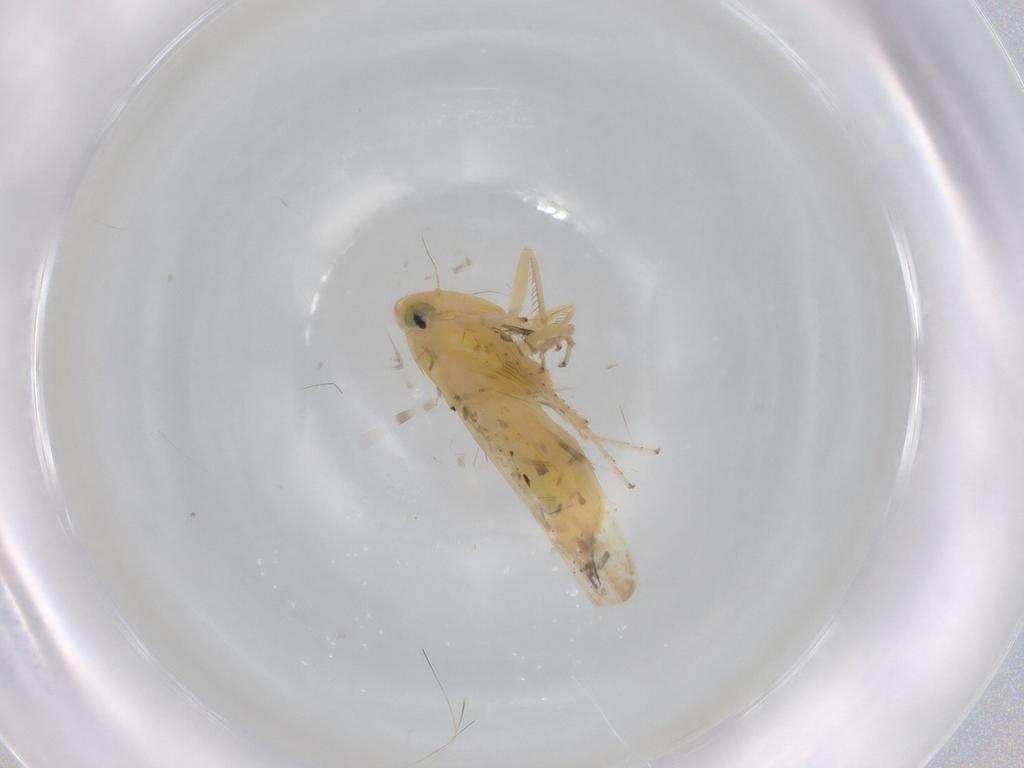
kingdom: Animalia
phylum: Arthropoda
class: Insecta
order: Hemiptera
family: Cicadellidae
